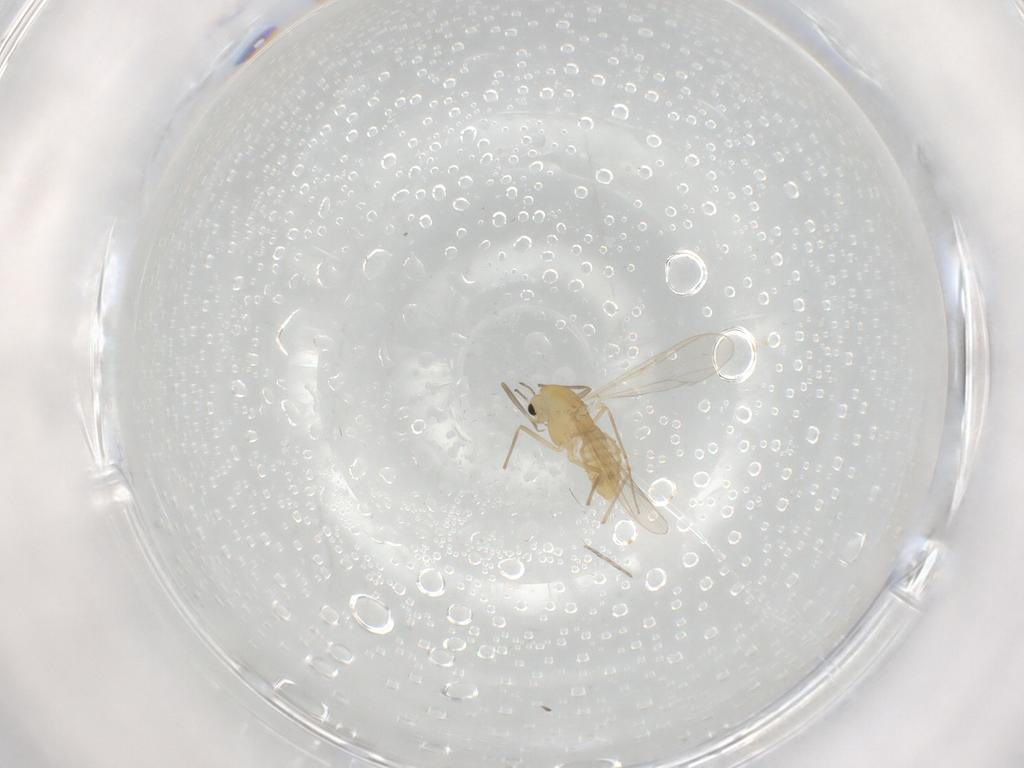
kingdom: Animalia
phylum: Arthropoda
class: Insecta
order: Diptera
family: Chironomidae
